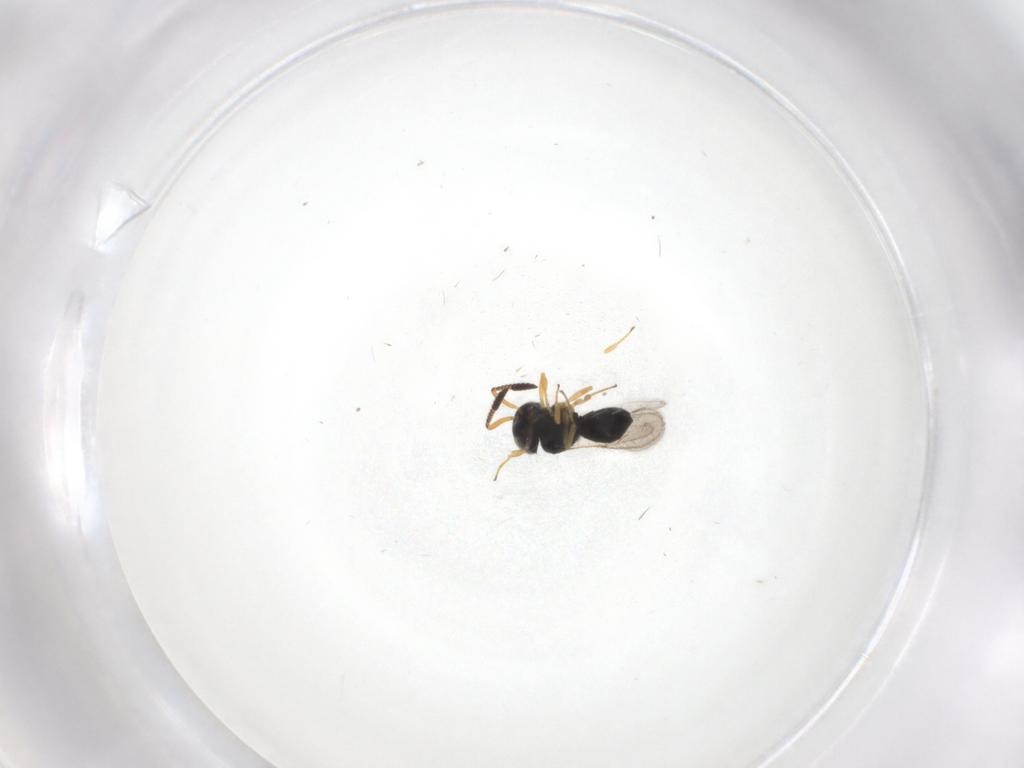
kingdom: Animalia
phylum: Arthropoda
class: Insecta
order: Hymenoptera
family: Scelionidae
